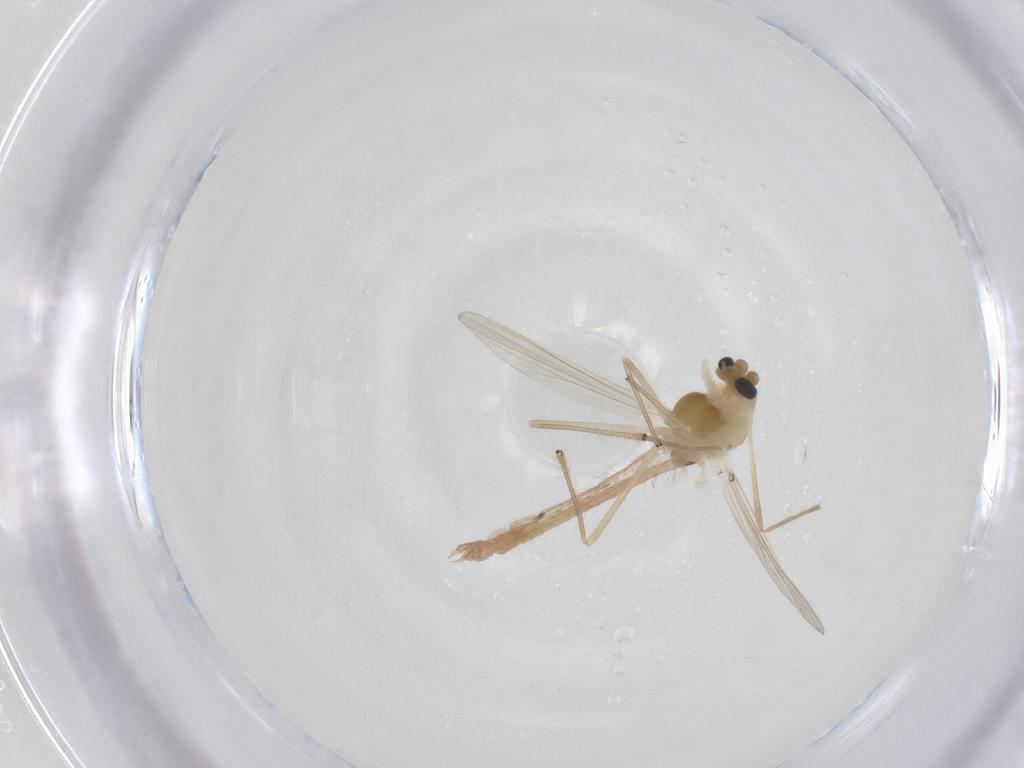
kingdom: Animalia
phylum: Arthropoda
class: Insecta
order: Diptera
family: Chironomidae
